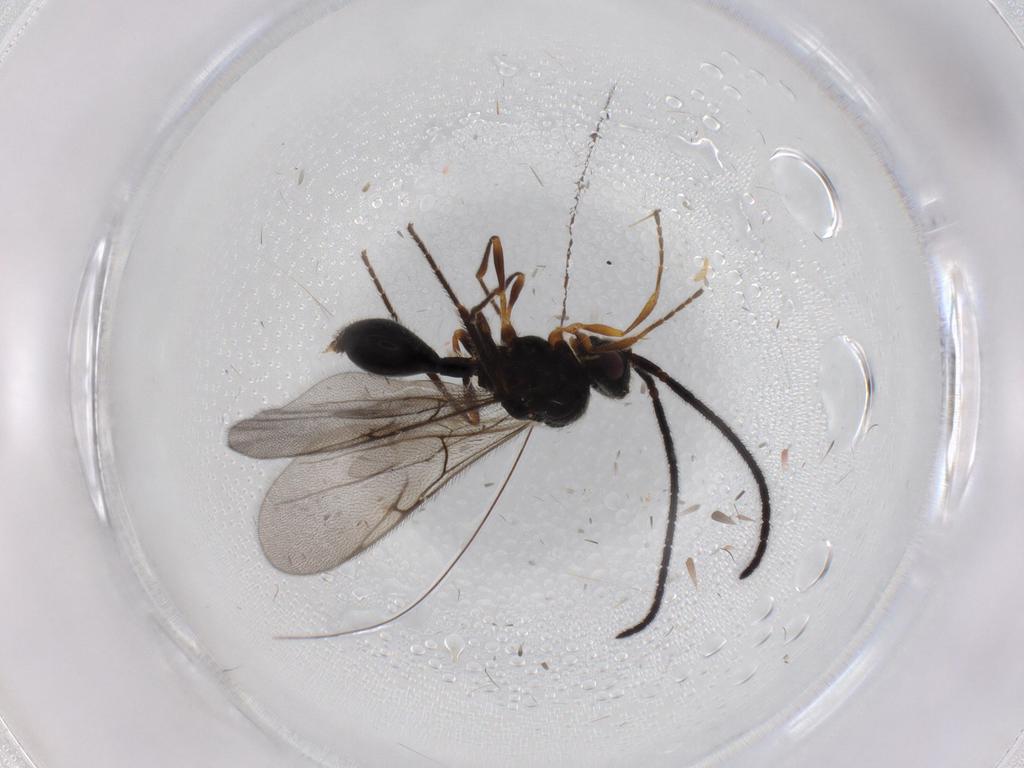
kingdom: Animalia
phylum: Arthropoda
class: Insecta
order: Hymenoptera
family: Diapriidae
